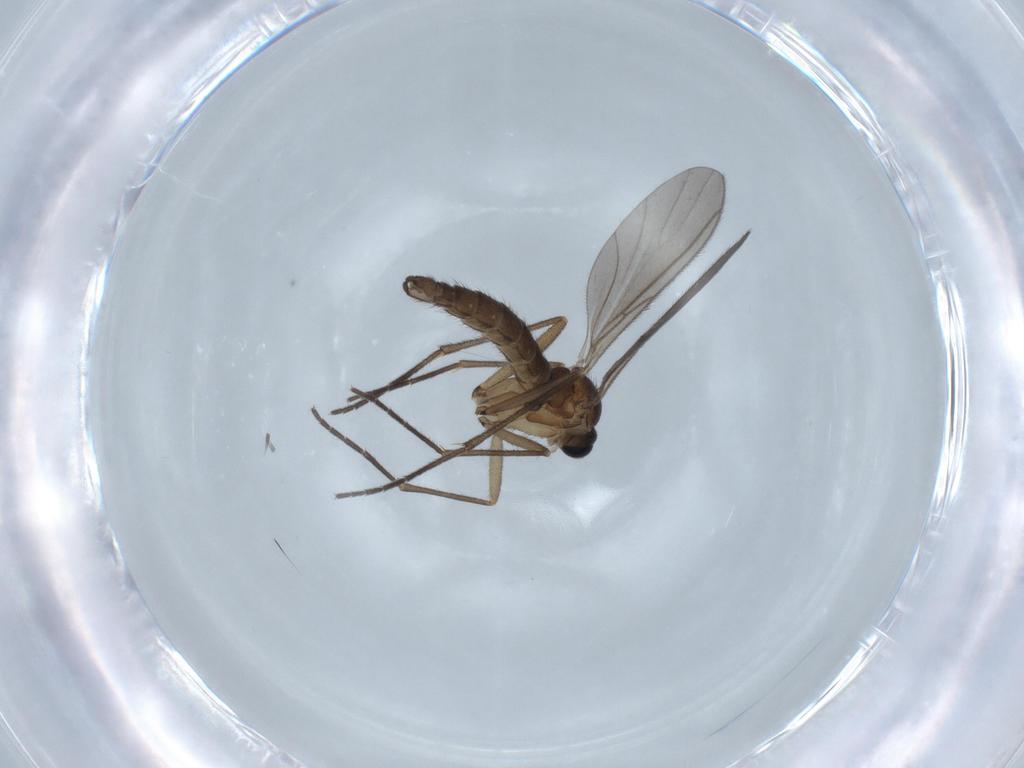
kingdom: Animalia
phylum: Arthropoda
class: Insecta
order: Diptera
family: Sciaridae
